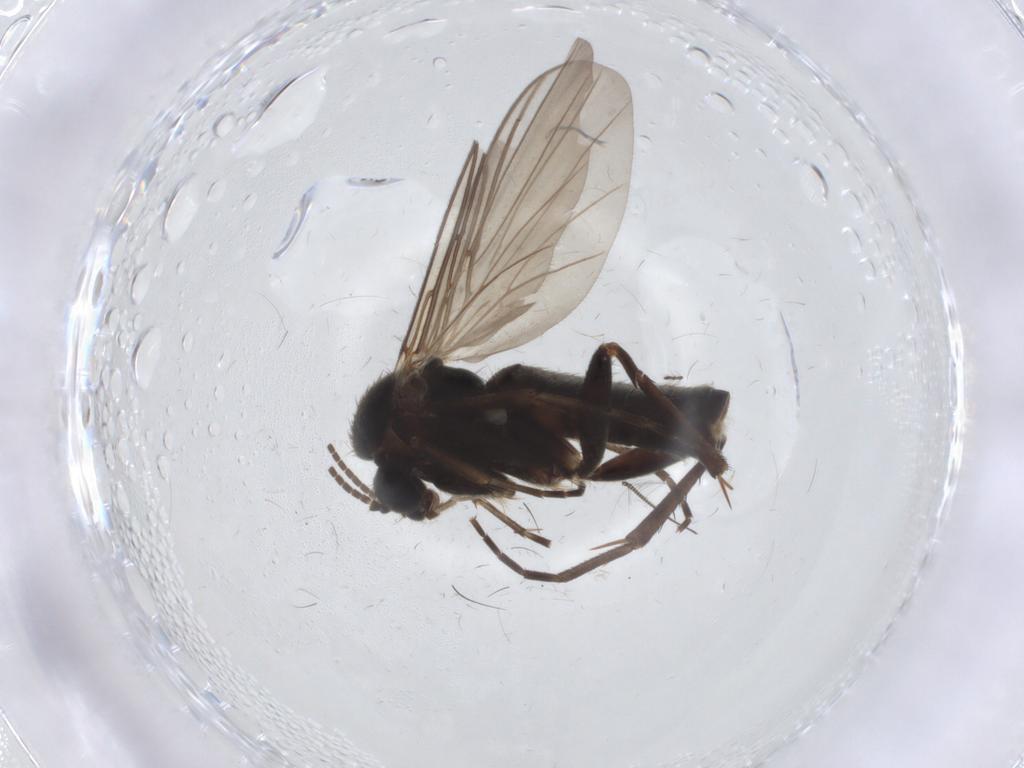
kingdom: Animalia
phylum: Arthropoda
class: Insecta
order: Diptera
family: Mycetophilidae
